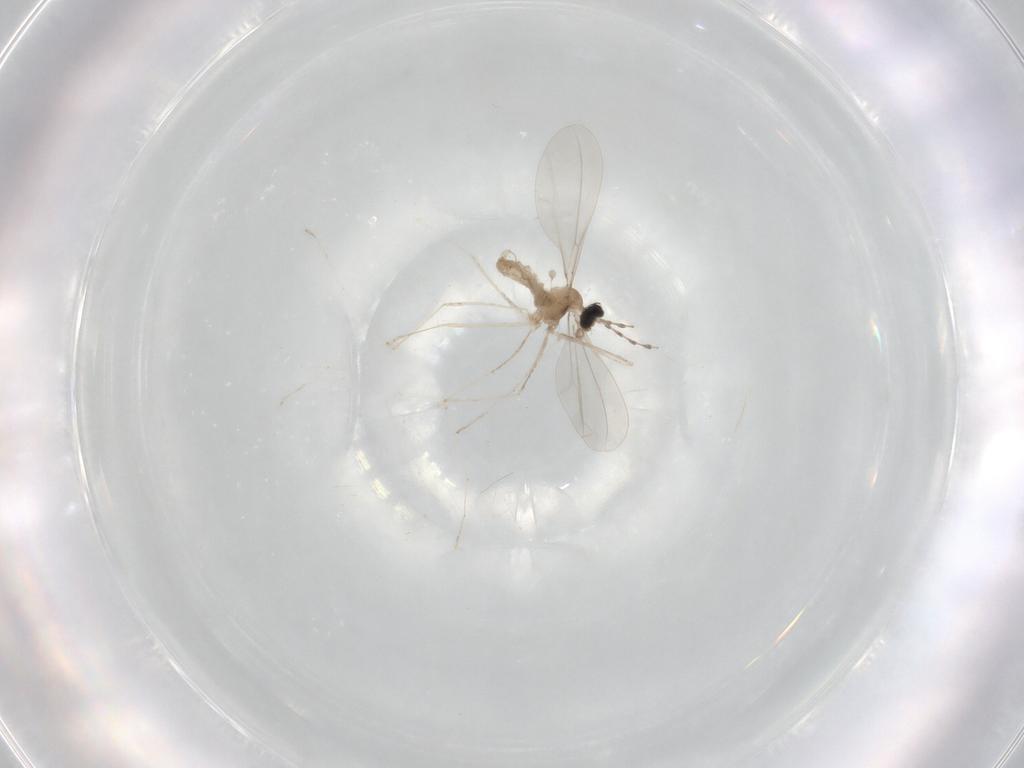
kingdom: Animalia
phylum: Arthropoda
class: Insecta
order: Diptera
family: Cecidomyiidae
